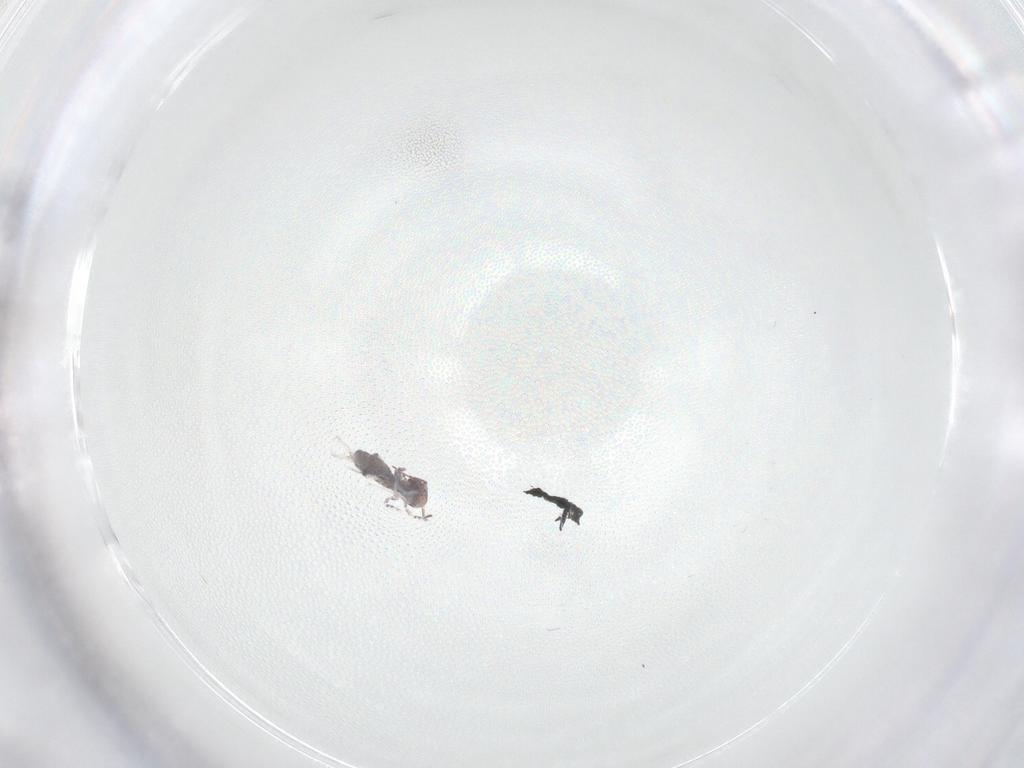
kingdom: Animalia
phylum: Arthropoda
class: Collembola
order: Symphypleona
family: Bourletiellidae
